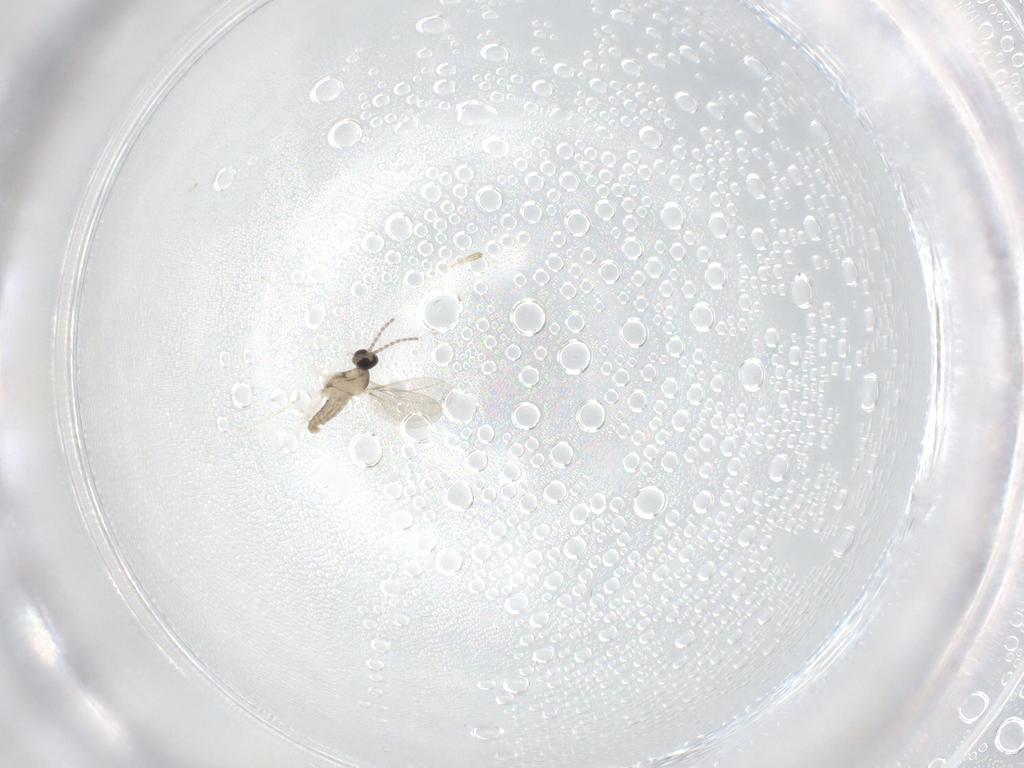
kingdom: Animalia
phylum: Arthropoda
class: Insecta
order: Diptera
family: Cecidomyiidae
